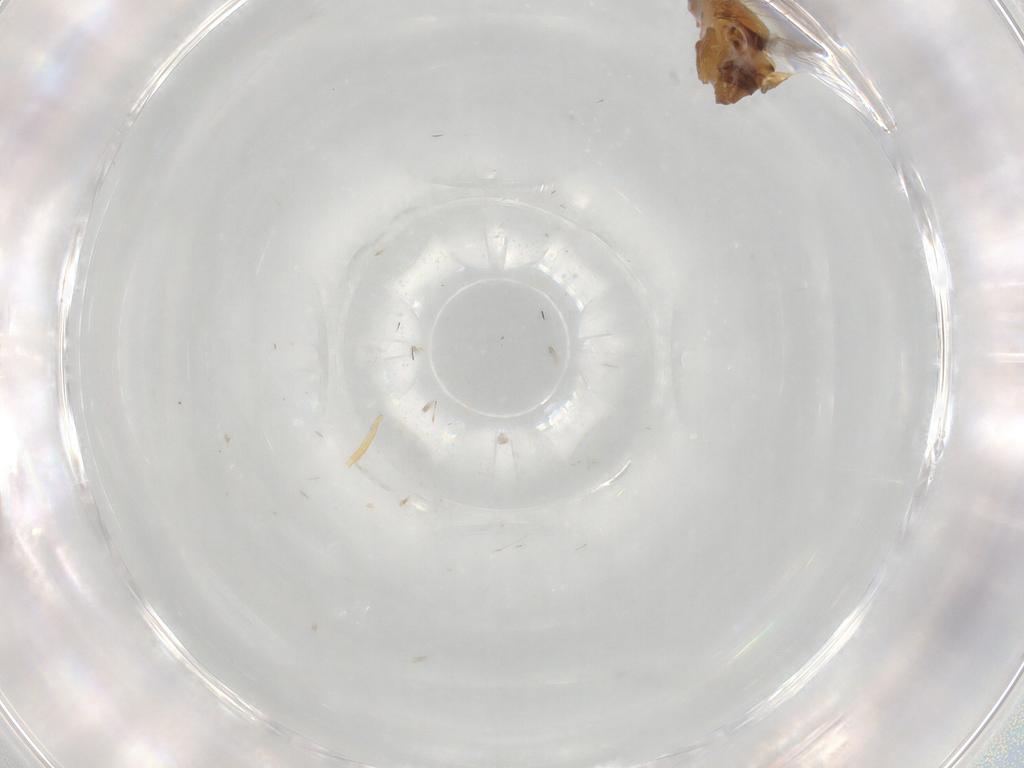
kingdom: Animalia
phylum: Arthropoda
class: Insecta
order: Diptera
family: Chloropidae
